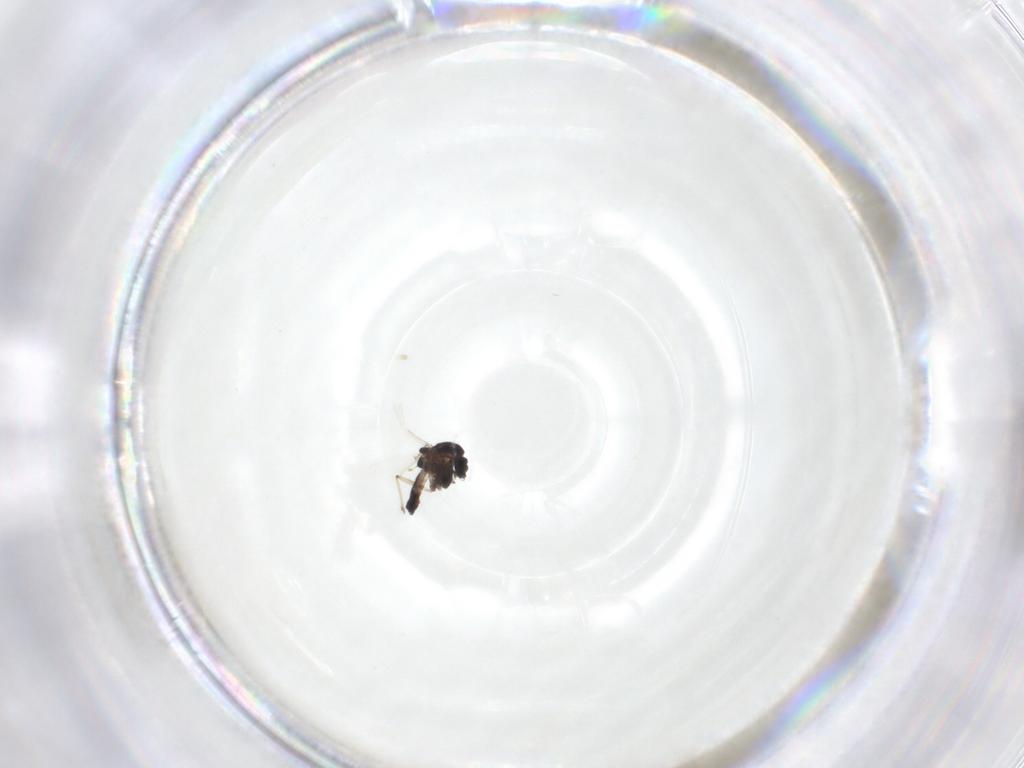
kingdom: Animalia
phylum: Arthropoda
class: Insecta
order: Diptera
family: Chironomidae
